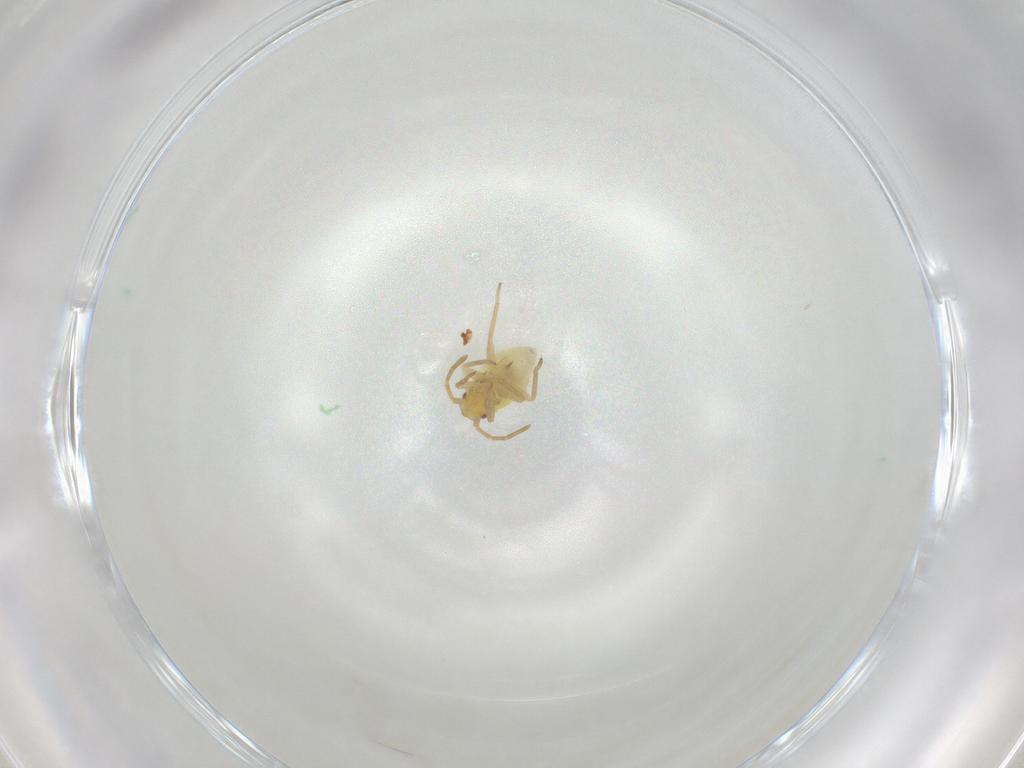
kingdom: Animalia
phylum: Arthropoda
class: Insecta
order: Hemiptera
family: Miridae
